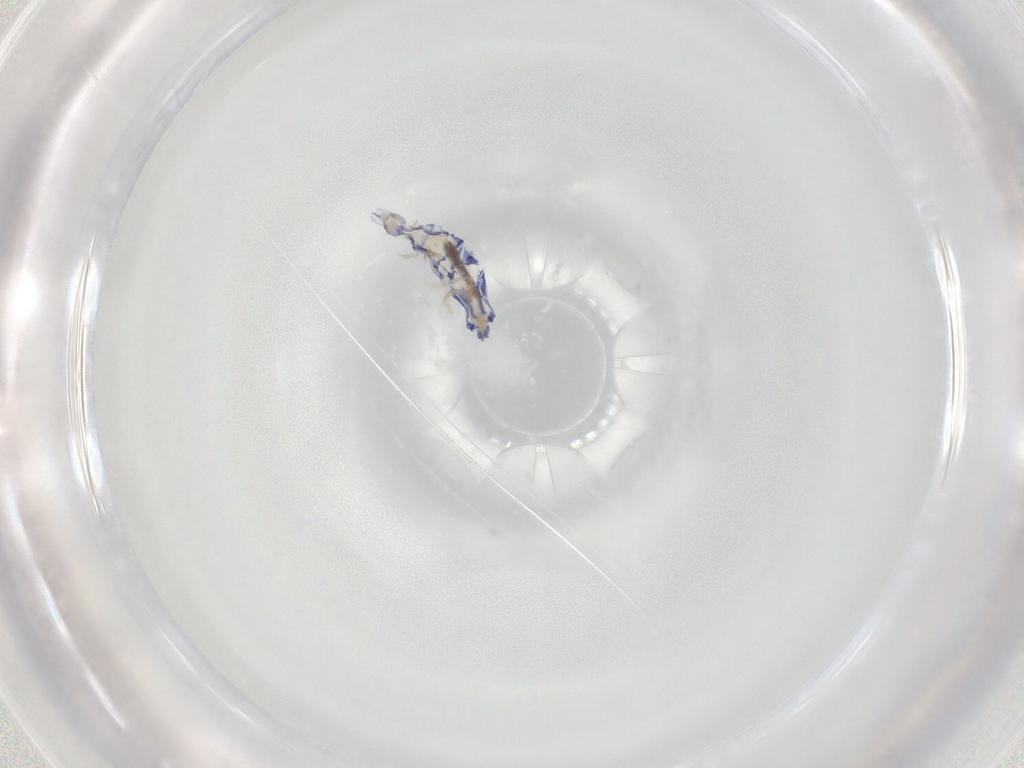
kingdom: Animalia
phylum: Arthropoda
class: Collembola
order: Entomobryomorpha
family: Entomobryidae
